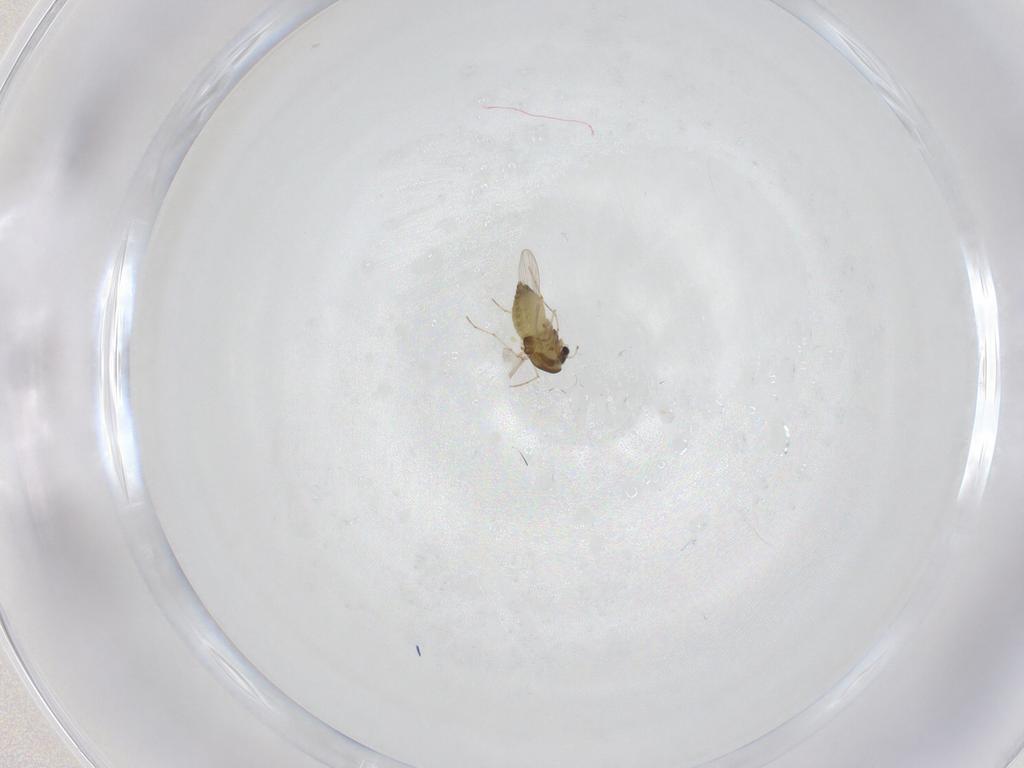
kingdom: Animalia
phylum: Arthropoda
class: Insecta
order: Diptera
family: Chironomidae
